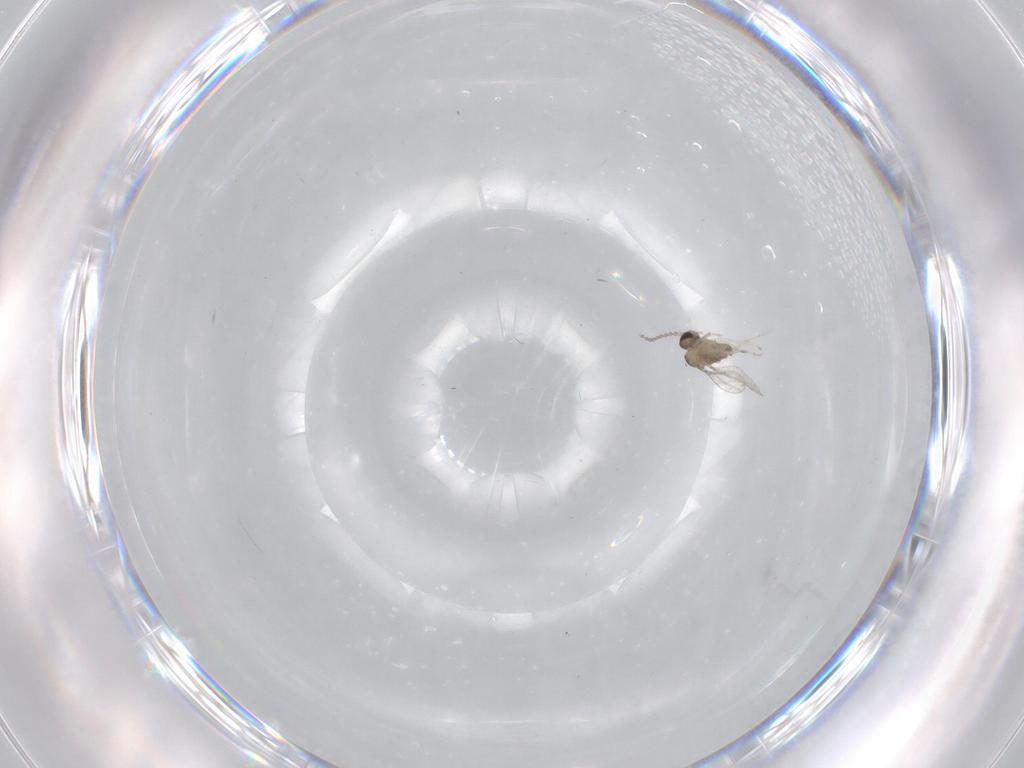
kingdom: Animalia
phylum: Arthropoda
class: Insecta
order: Diptera
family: Cecidomyiidae
